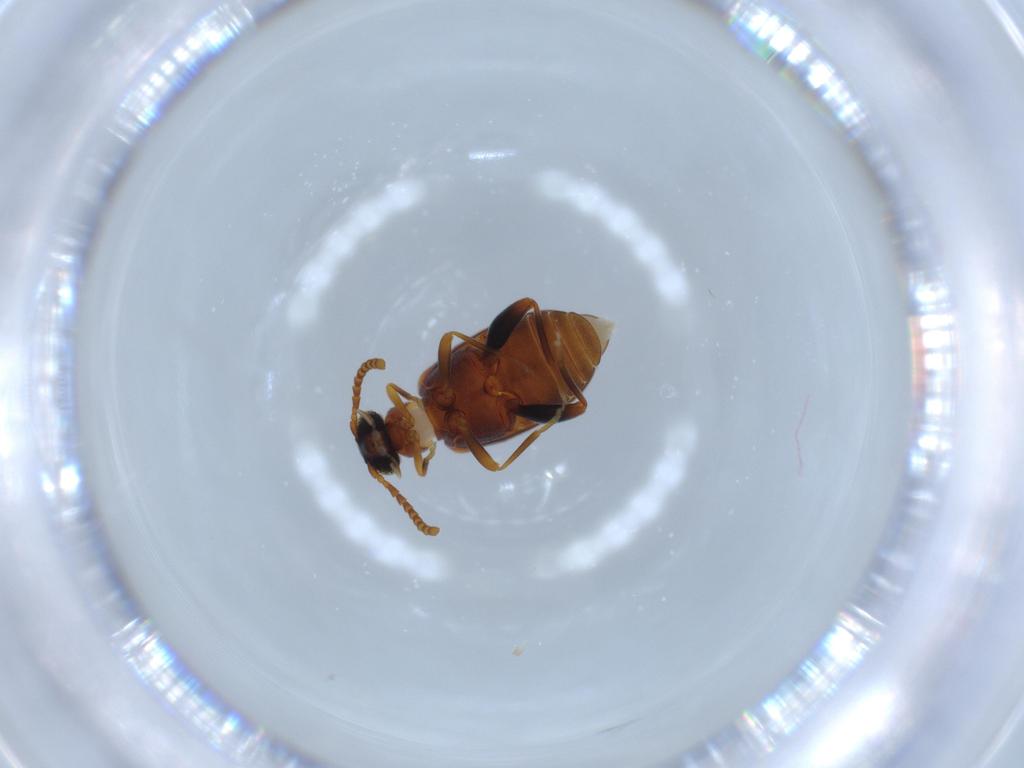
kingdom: Animalia
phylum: Arthropoda
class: Insecta
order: Coleoptera
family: Aderidae
